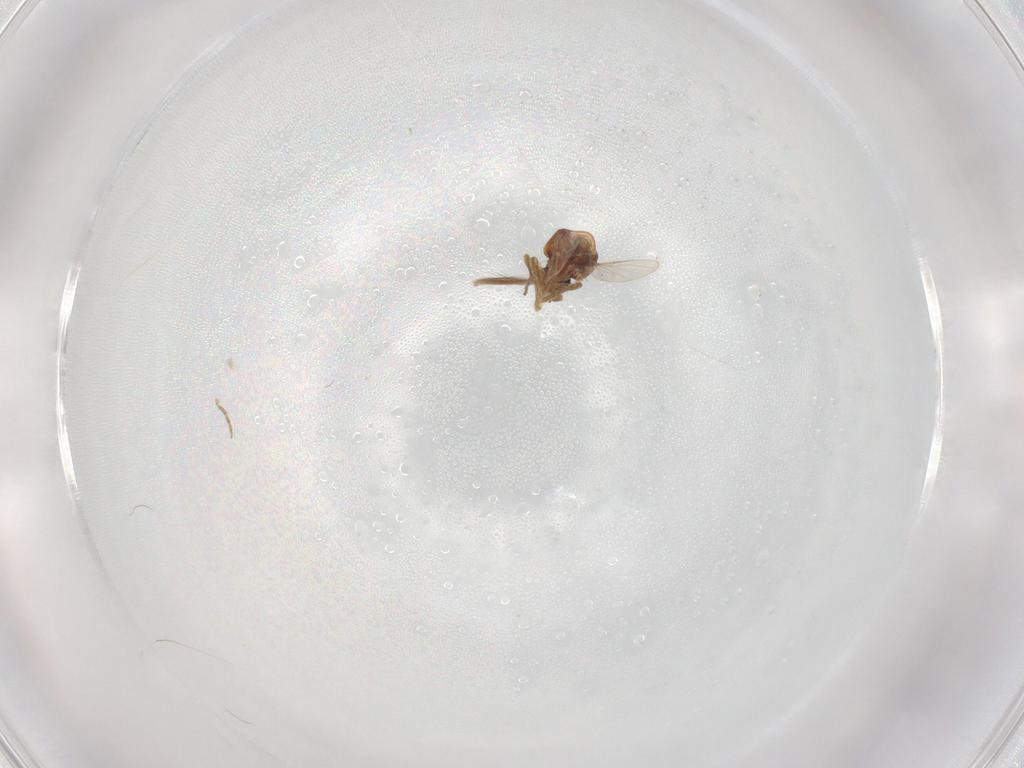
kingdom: Animalia
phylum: Arthropoda
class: Insecta
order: Diptera
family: Ceratopogonidae
